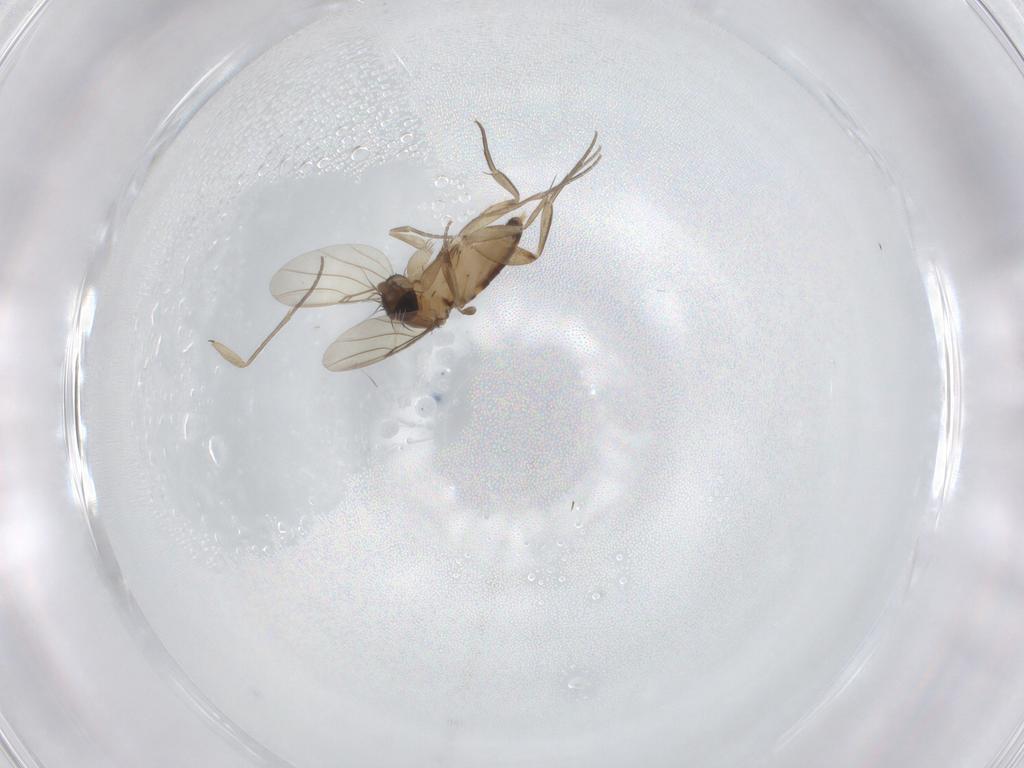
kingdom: Animalia
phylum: Arthropoda
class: Insecta
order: Diptera
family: Phoridae
